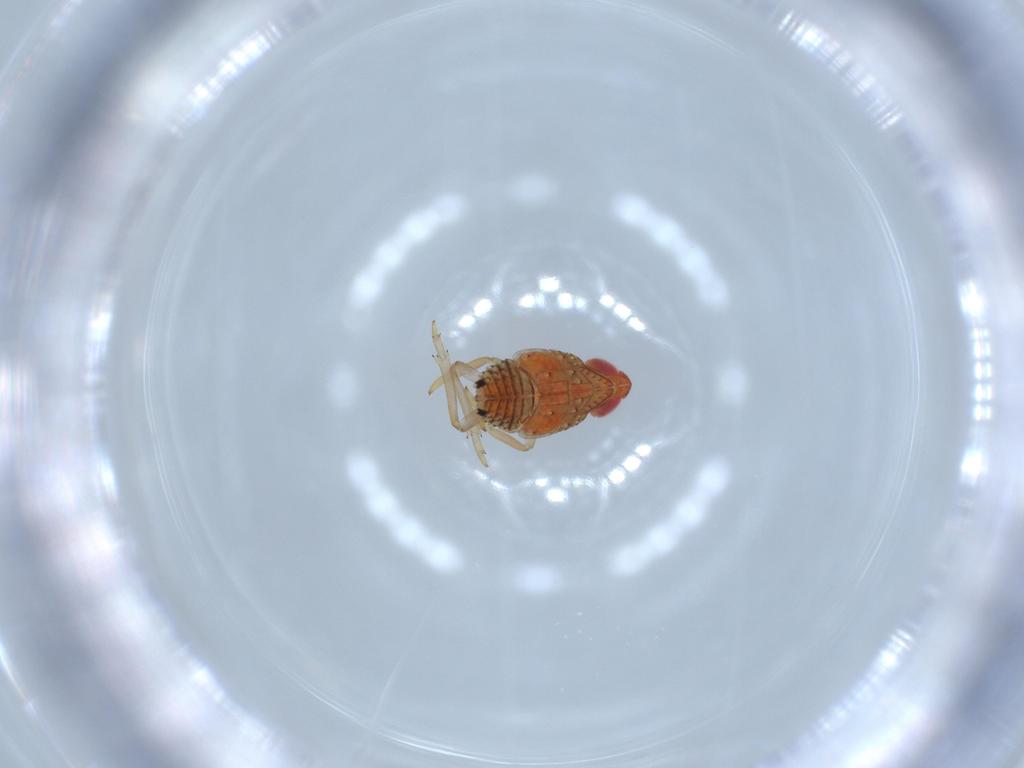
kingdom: Animalia
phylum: Arthropoda
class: Insecta
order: Hemiptera
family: Fulgoroidea_incertae_sedis
